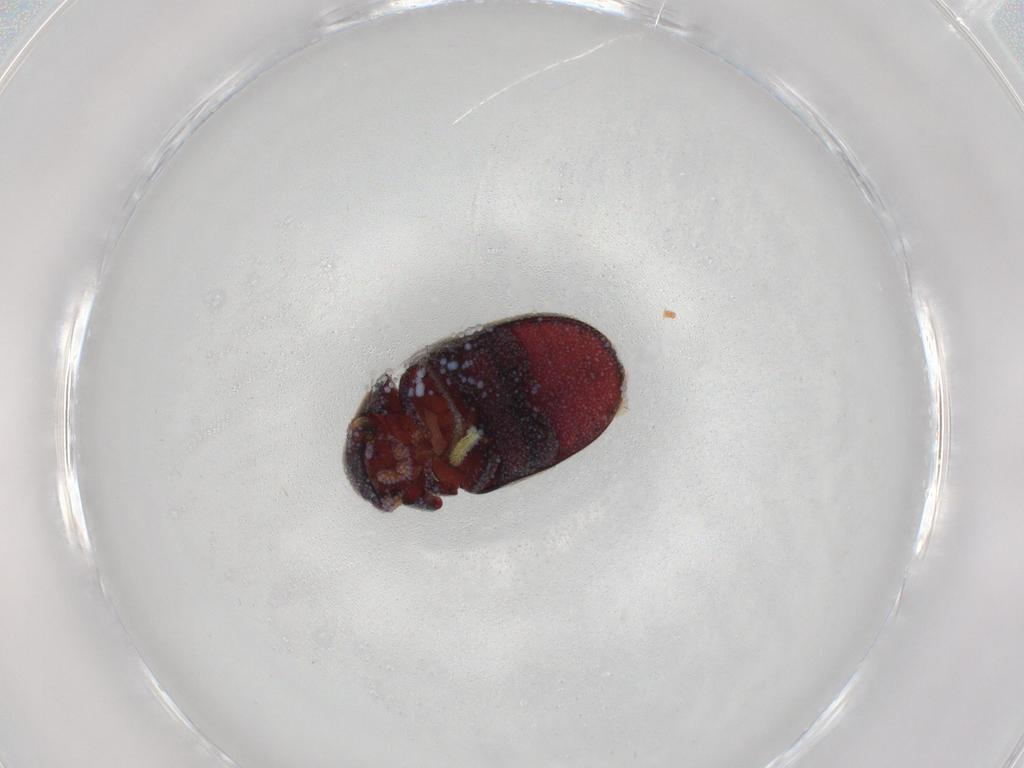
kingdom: Animalia
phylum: Arthropoda
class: Insecta
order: Coleoptera
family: Ptinidae
